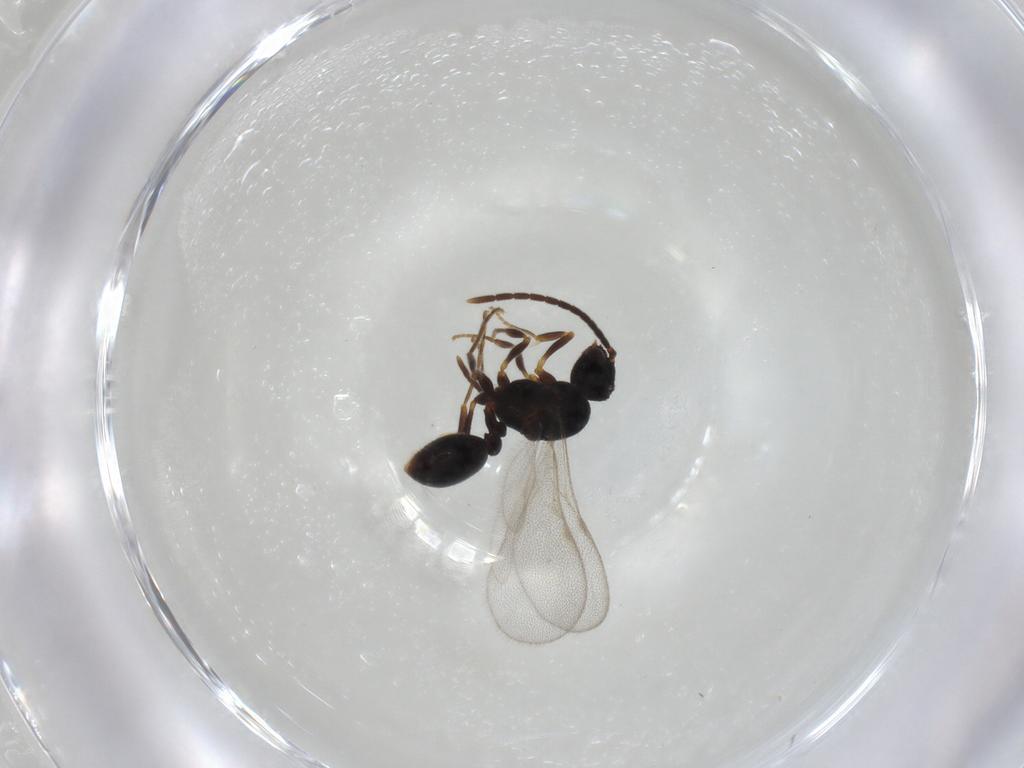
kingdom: Animalia
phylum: Arthropoda
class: Insecta
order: Hymenoptera
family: Formicidae
